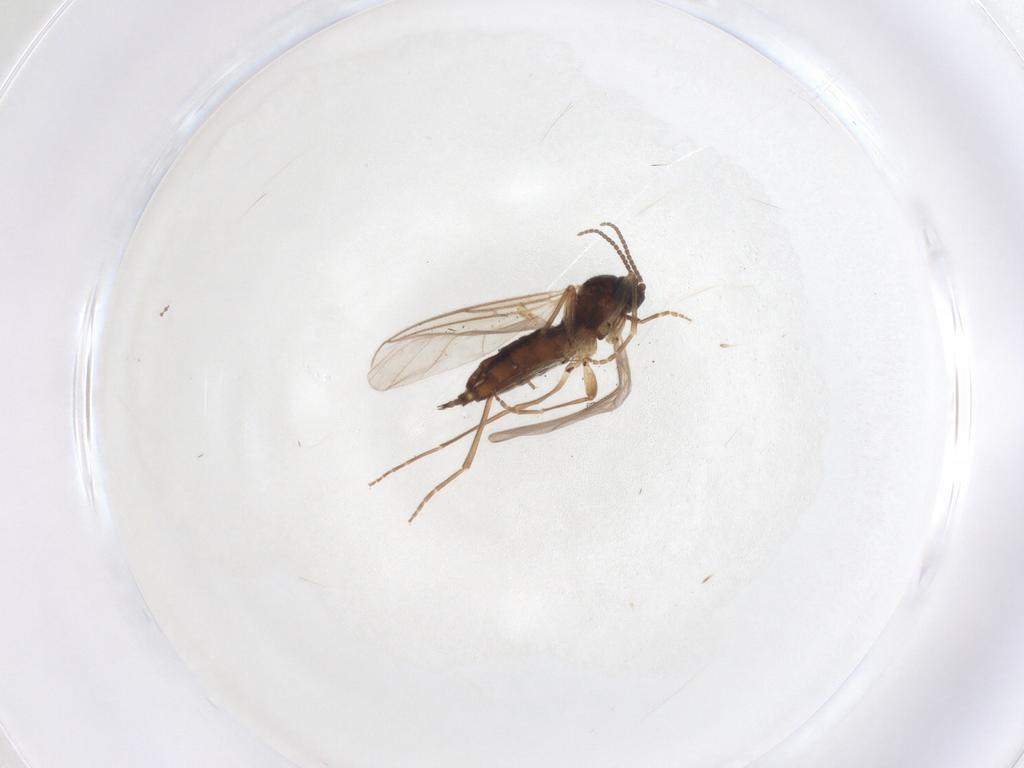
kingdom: Animalia
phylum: Arthropoda
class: Insecta
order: Diptera
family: Sciaridae
